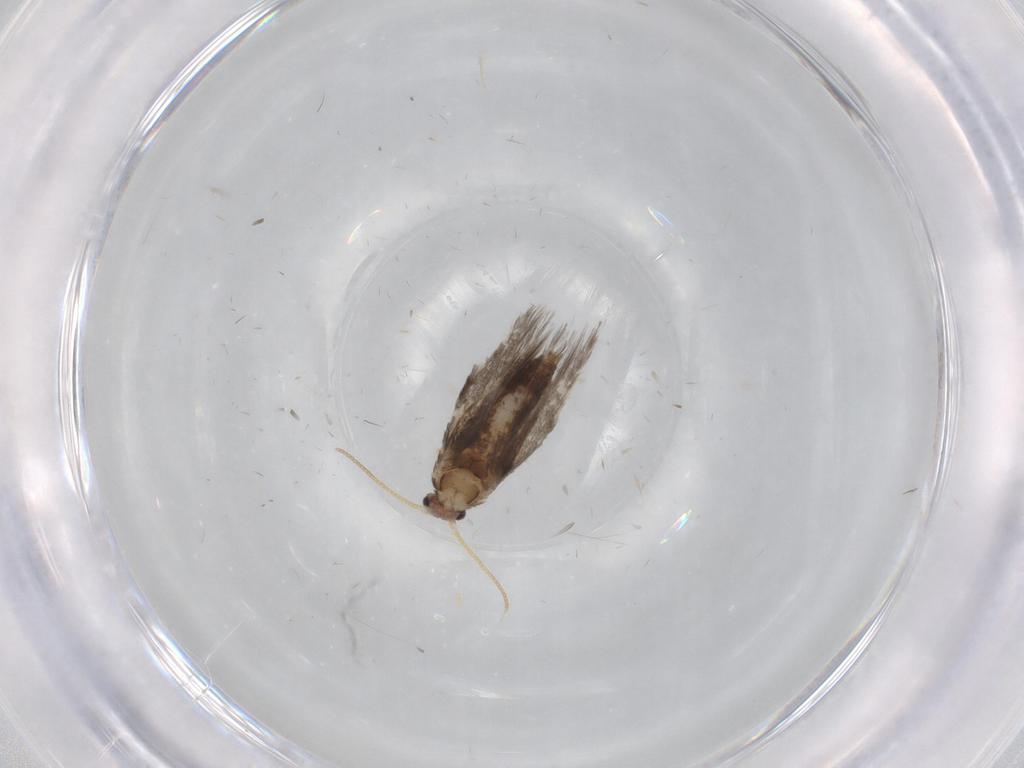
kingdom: Animalia
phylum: Arthropoda
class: Insecta
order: Lepidoptera
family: Nepticulidae
